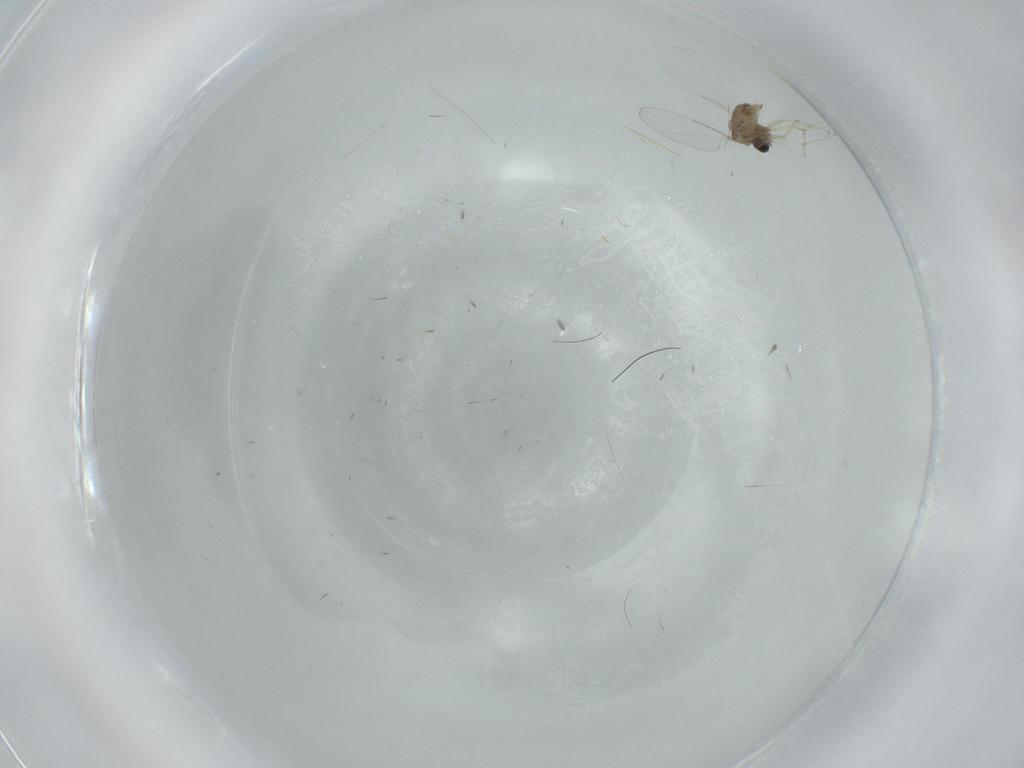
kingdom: Animalia
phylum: Arthropoda
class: Insecta
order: Diptera
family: Cecidomyiidae
